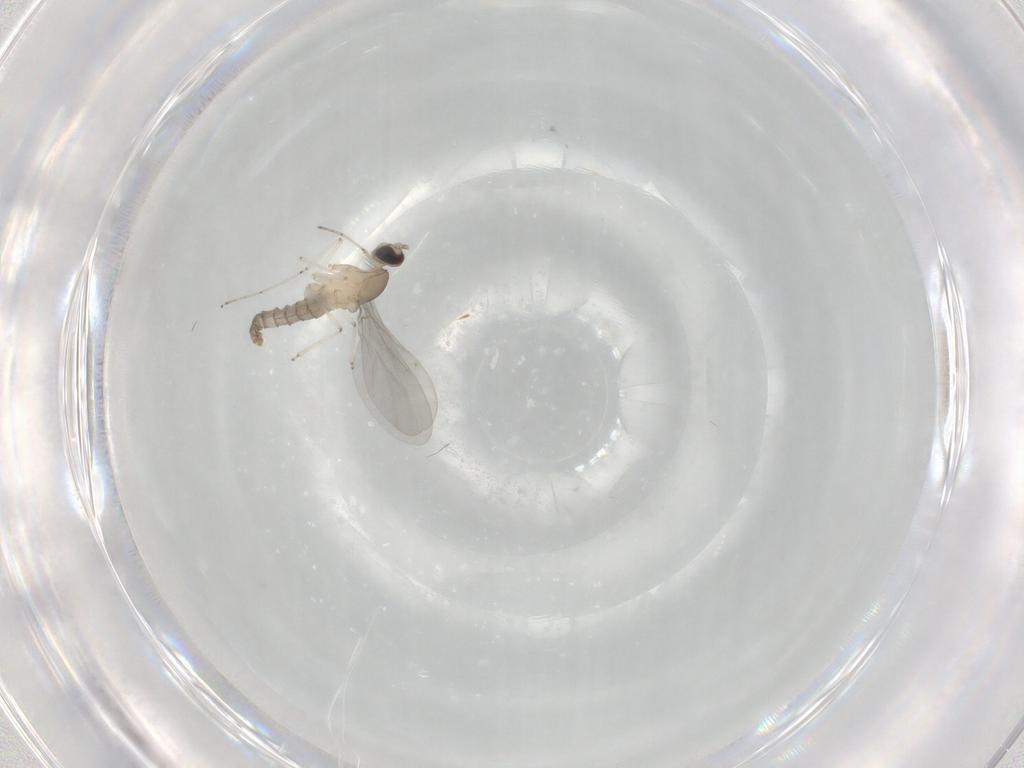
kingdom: Animalia
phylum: Arthropoda
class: Insecta
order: Diptera
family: Cecidomyiidae
